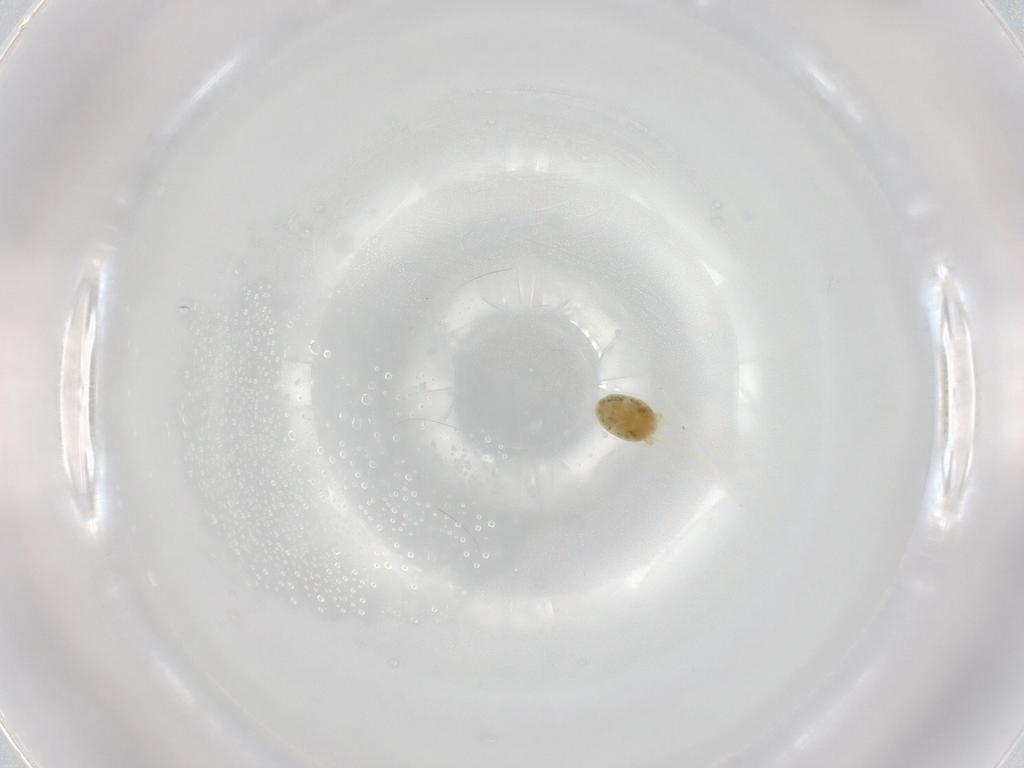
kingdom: Animalia
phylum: Arthropoda
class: Arachnida
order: Trombidiformes
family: Tetranychidae
